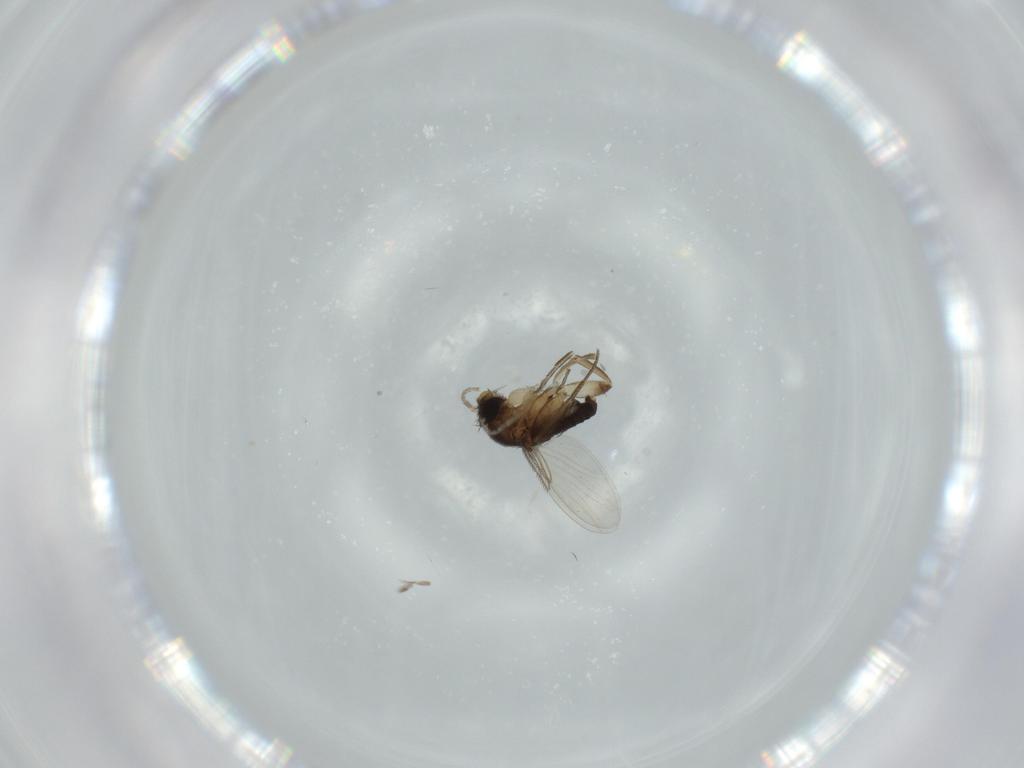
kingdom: Animalia
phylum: Arthropoda
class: Insecta
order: Diptera
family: Phoridae
